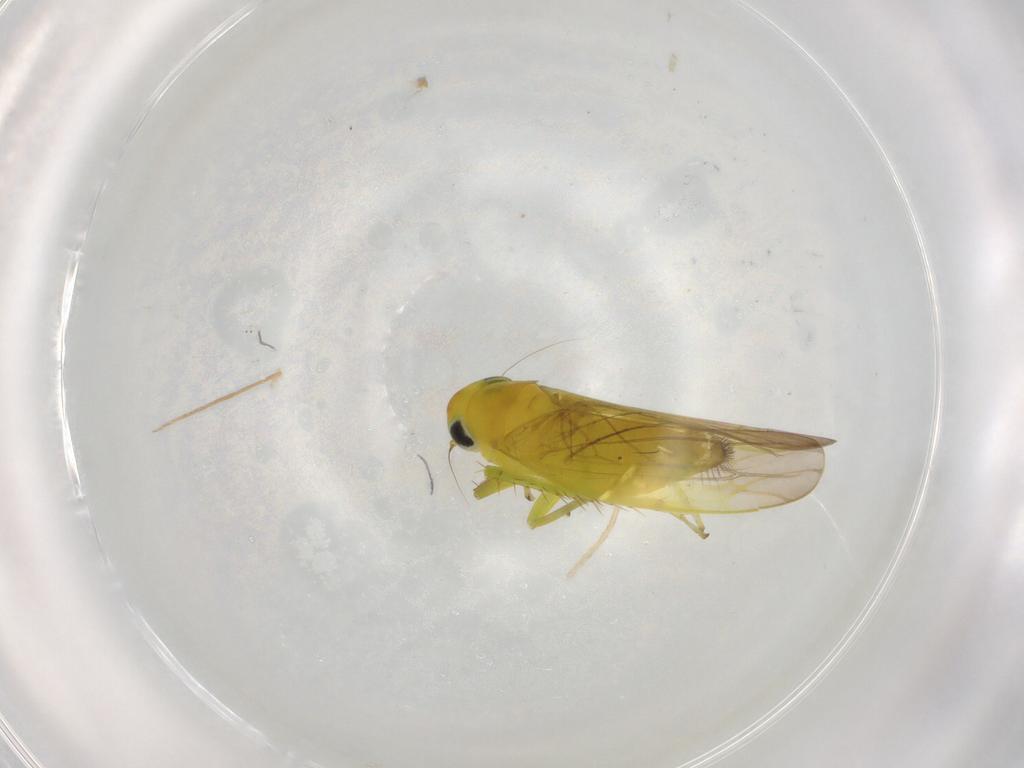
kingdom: Animalia
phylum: Arthropoda
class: Insecta
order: Hemiptera
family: Cicadellidae
